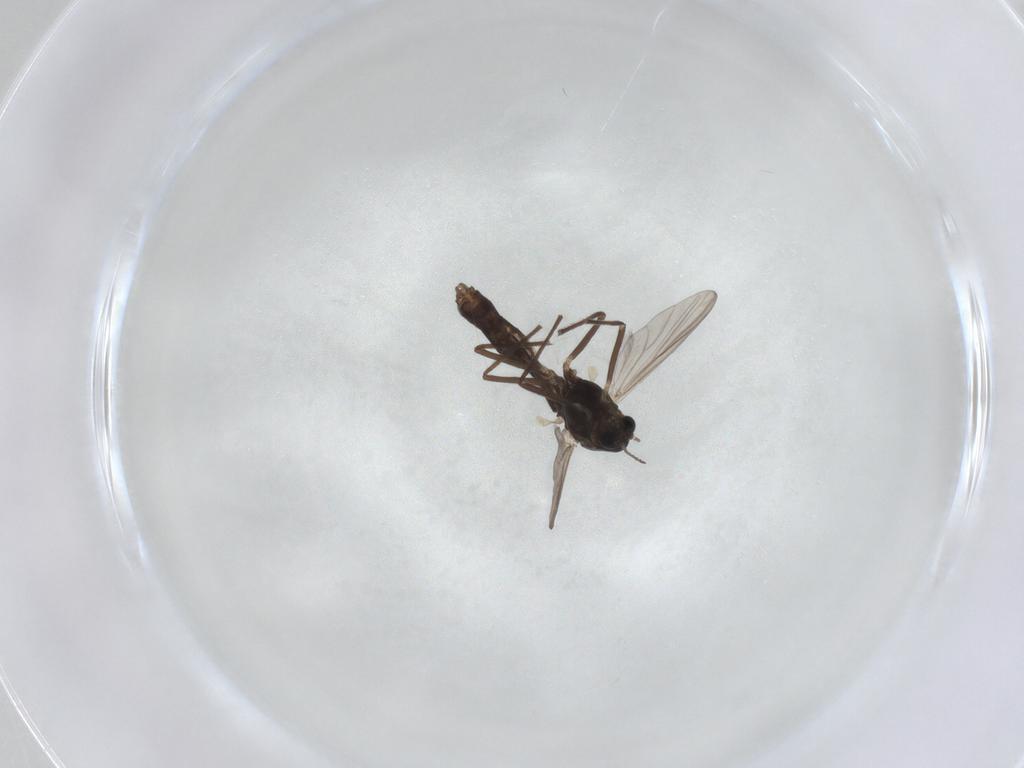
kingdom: Animalia
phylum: Arthropoda
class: Insecta
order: Diptera
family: Chironomidae
